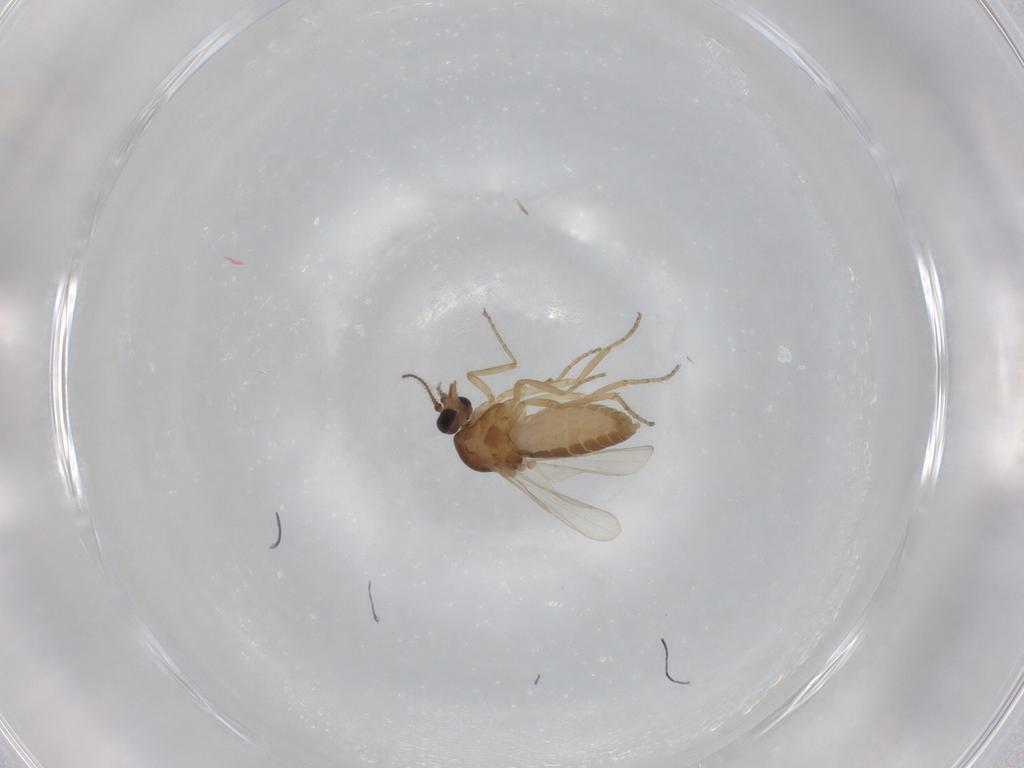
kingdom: Animalia
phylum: Arthropoda
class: Insecta
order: Diptera
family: Ceratopogonidae
